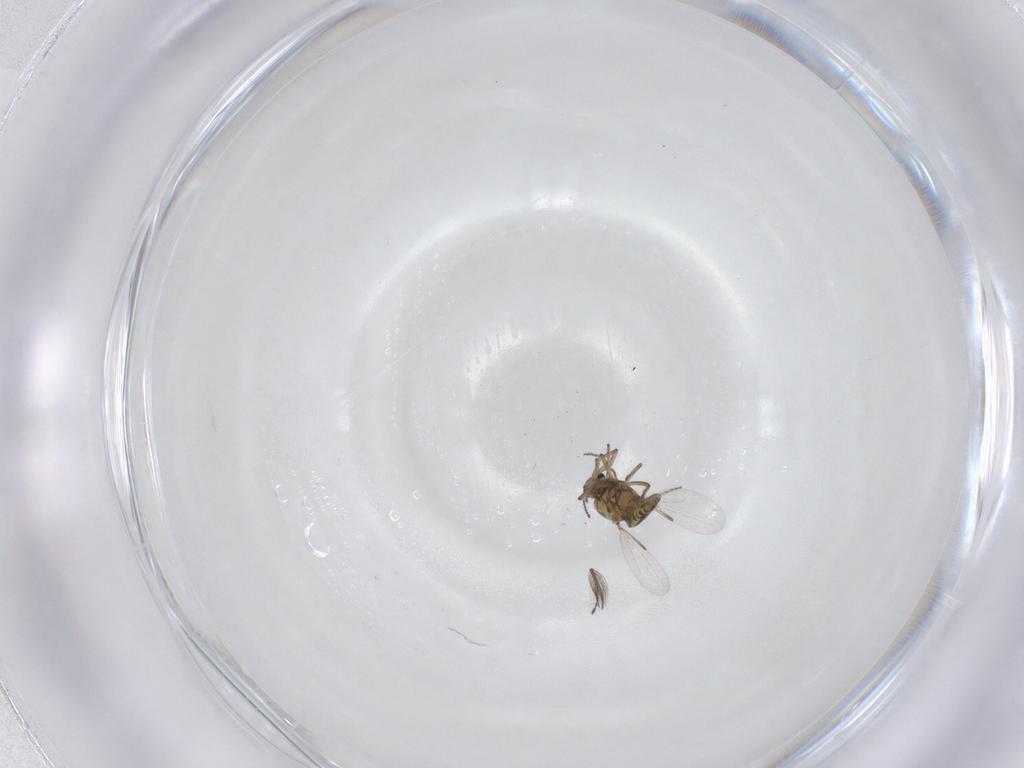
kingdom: Animalia
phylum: Arthropoda
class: Insecta
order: Diptera
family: Ceratopogonidae
